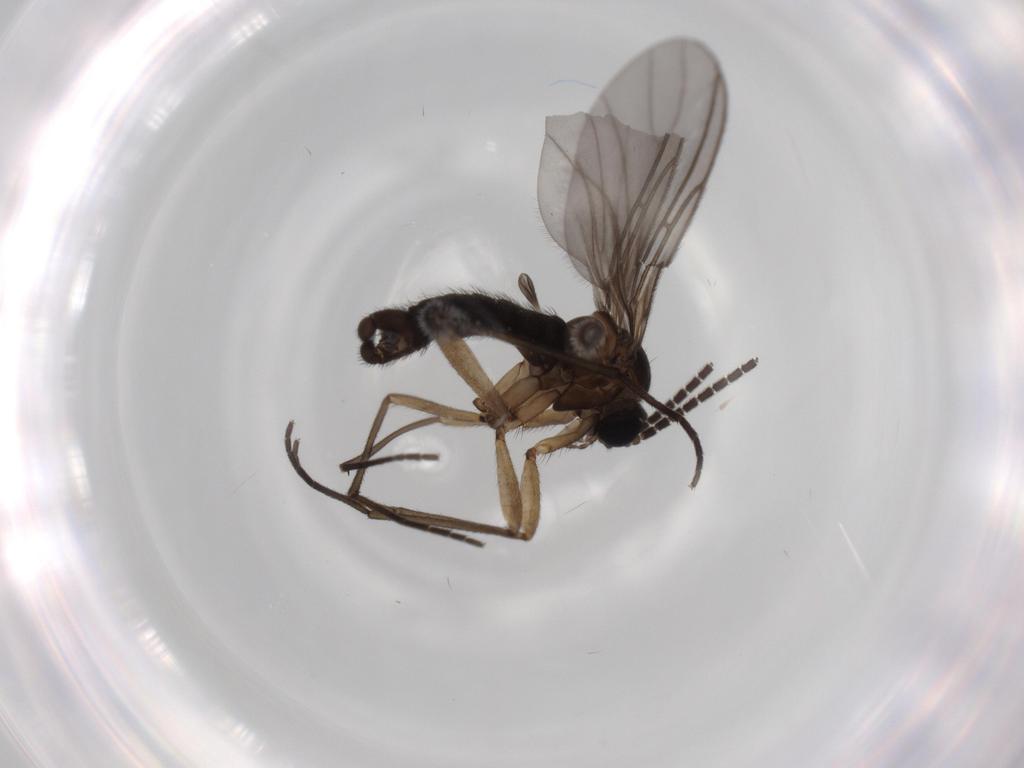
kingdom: Animalia
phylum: Arthropoda
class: Insecta
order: Diptera
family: Sciaridae
